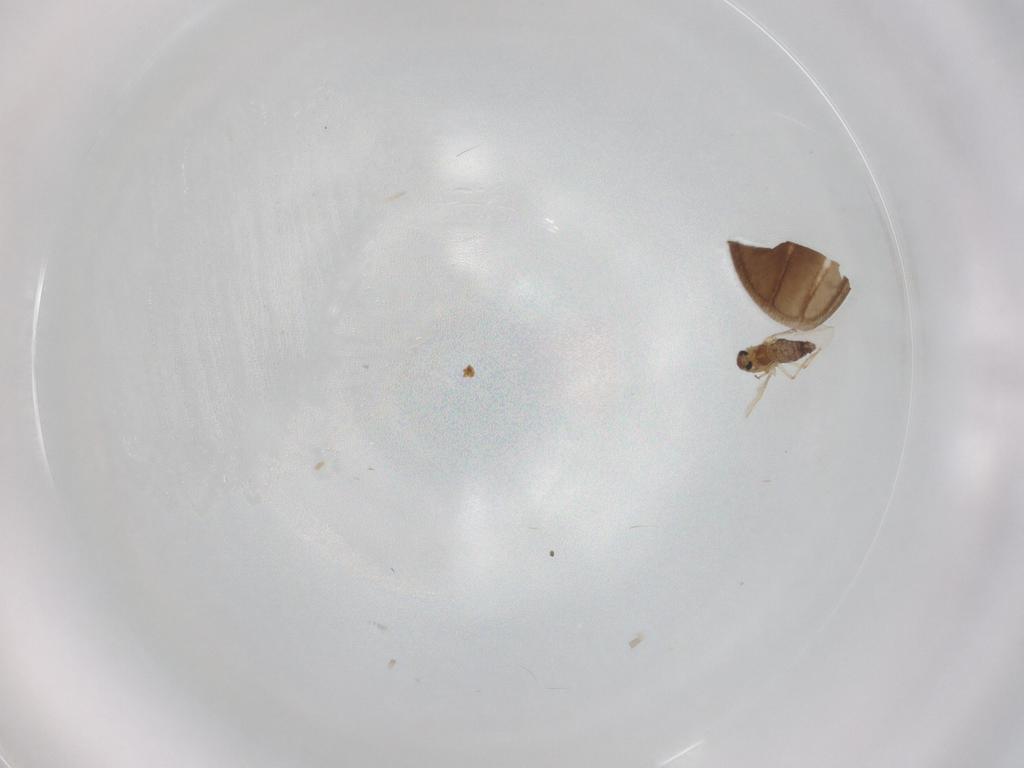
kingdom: Animalia
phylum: Arthropoda
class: Insecta
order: Diptera
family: Chironomidae
